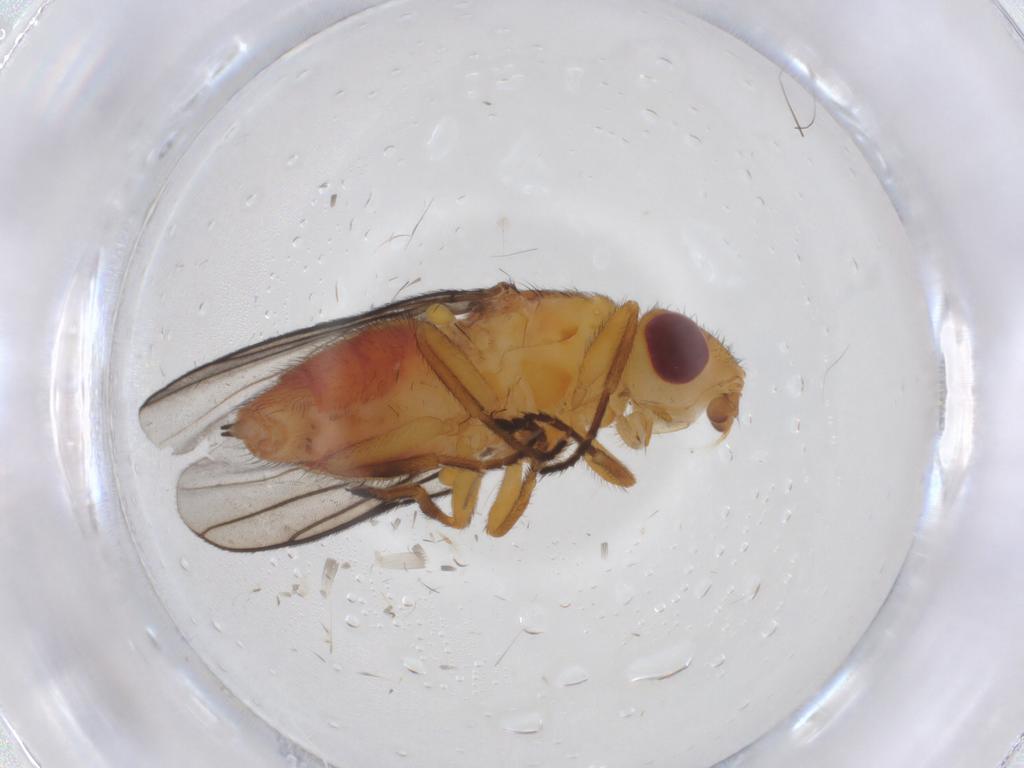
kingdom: Animalia
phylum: Arthropoda
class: Insecta
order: Diptera
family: Chloropidae
